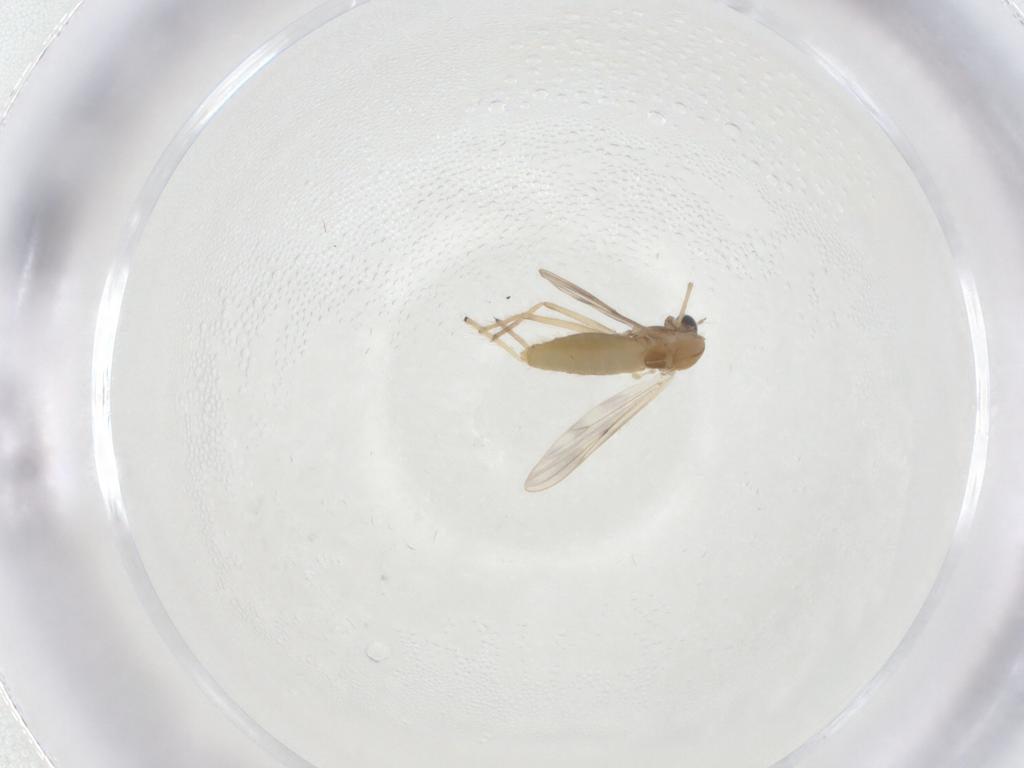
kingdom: Animalia
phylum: Arthropoda
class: Insecta
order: Diptera
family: Chironomidae
